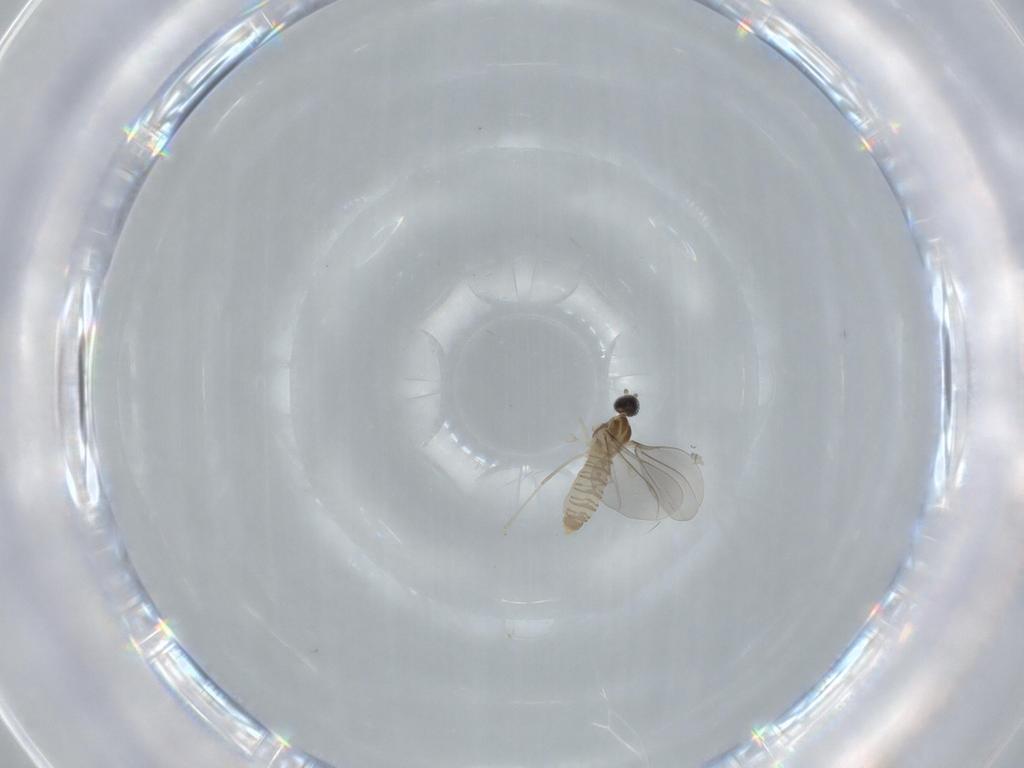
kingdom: Animalia
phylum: Arthropoda
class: Insecta
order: Diptera
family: Cecidomyiidae
